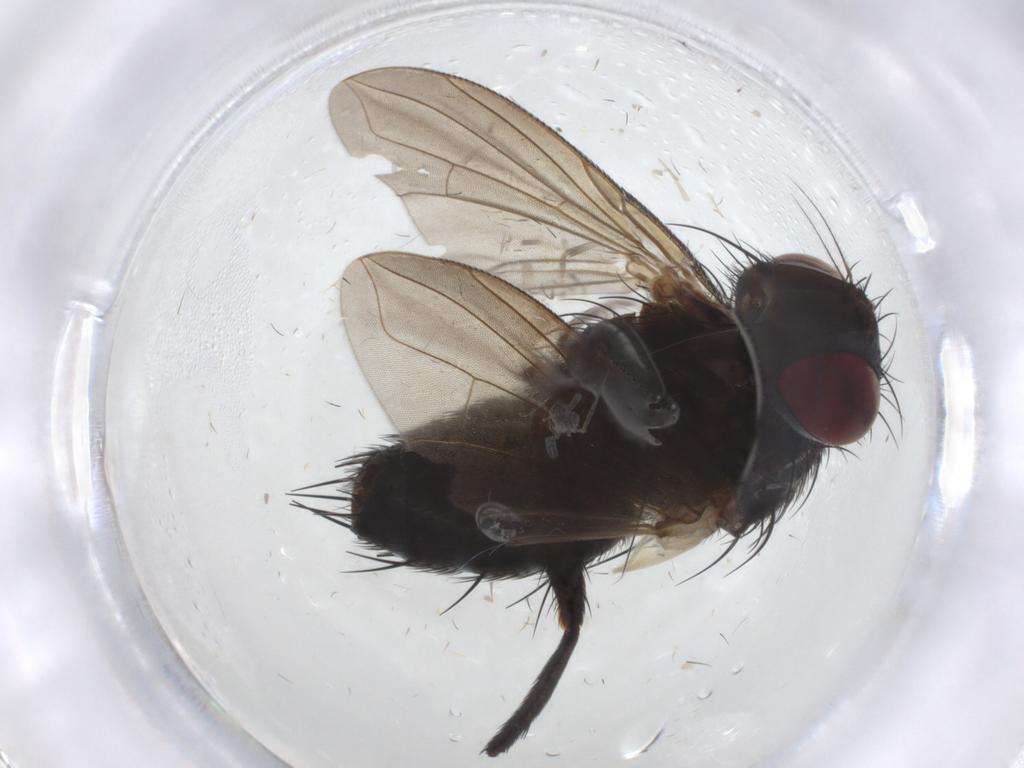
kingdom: Animalia
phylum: Arthropoda
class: Insecta
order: Diptera
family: Tachinidae
